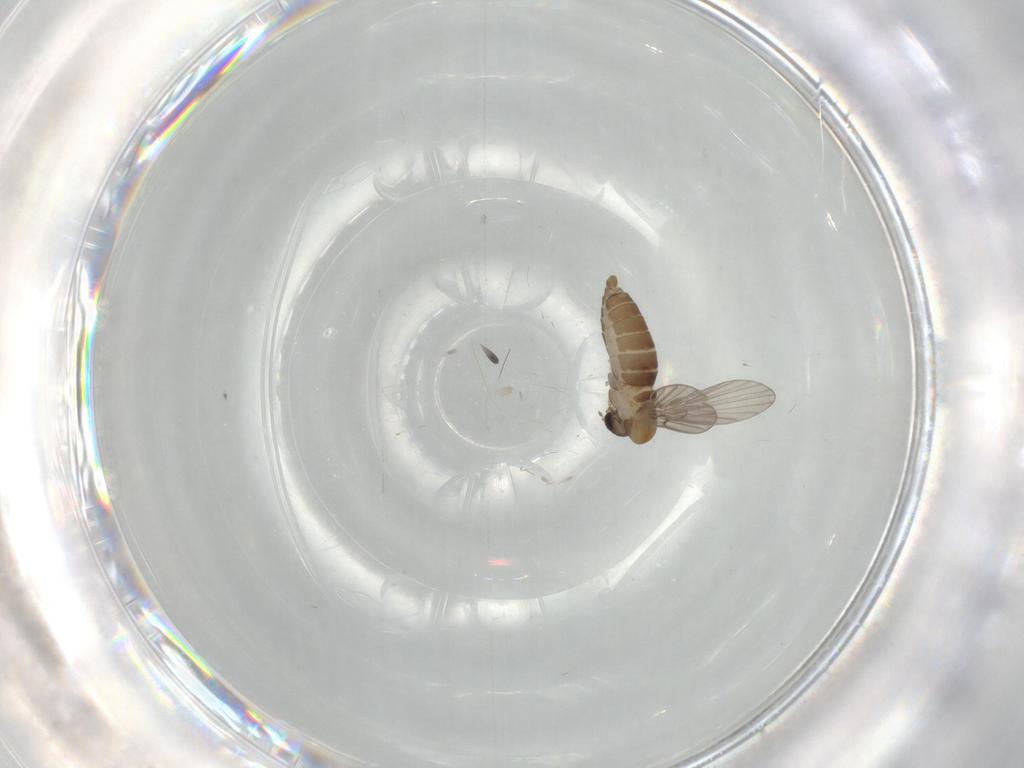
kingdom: Animalia
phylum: Arthropoda
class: Insecta
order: Diptera
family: Psychodidae
